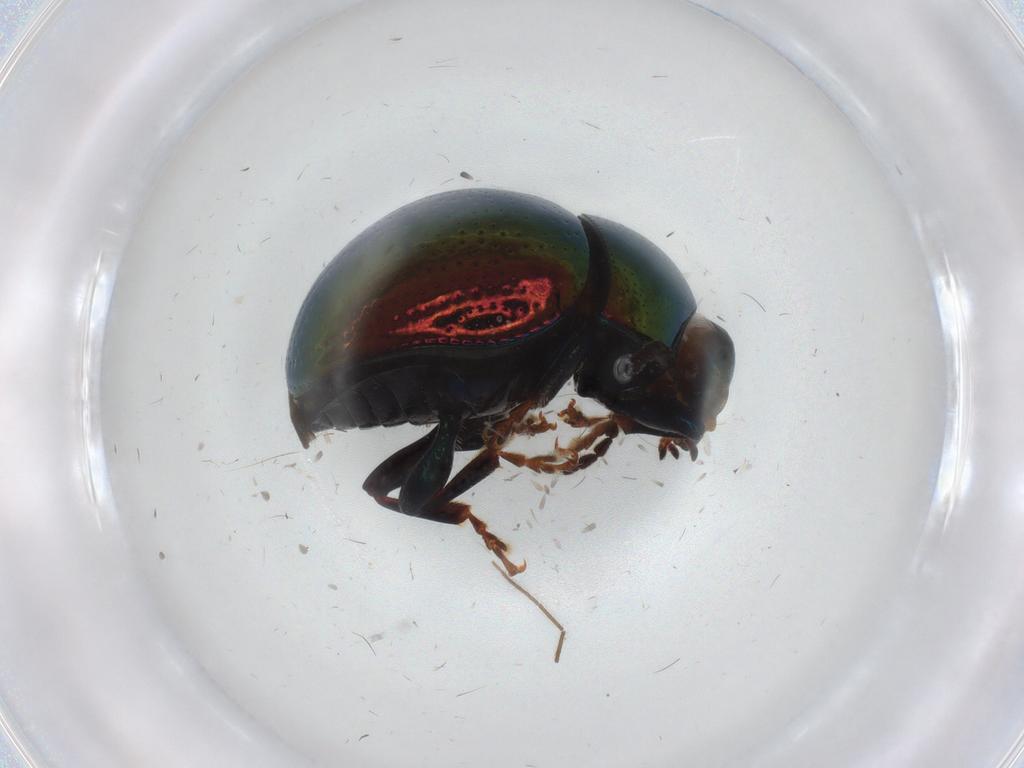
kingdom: Animalia
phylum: Arthropoda
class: Insecta
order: Coleoptera
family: Chrysomelidae
